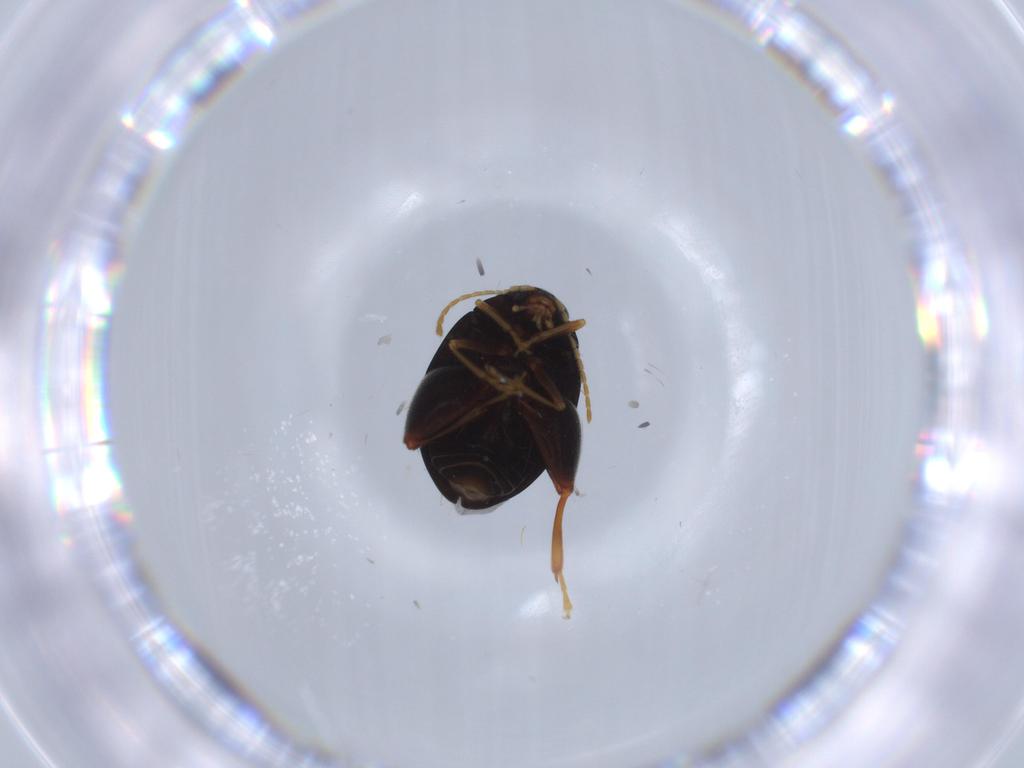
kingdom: Animalia
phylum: Arthropoda
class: Insecta
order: Coleoptera
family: Chrysomelidae
